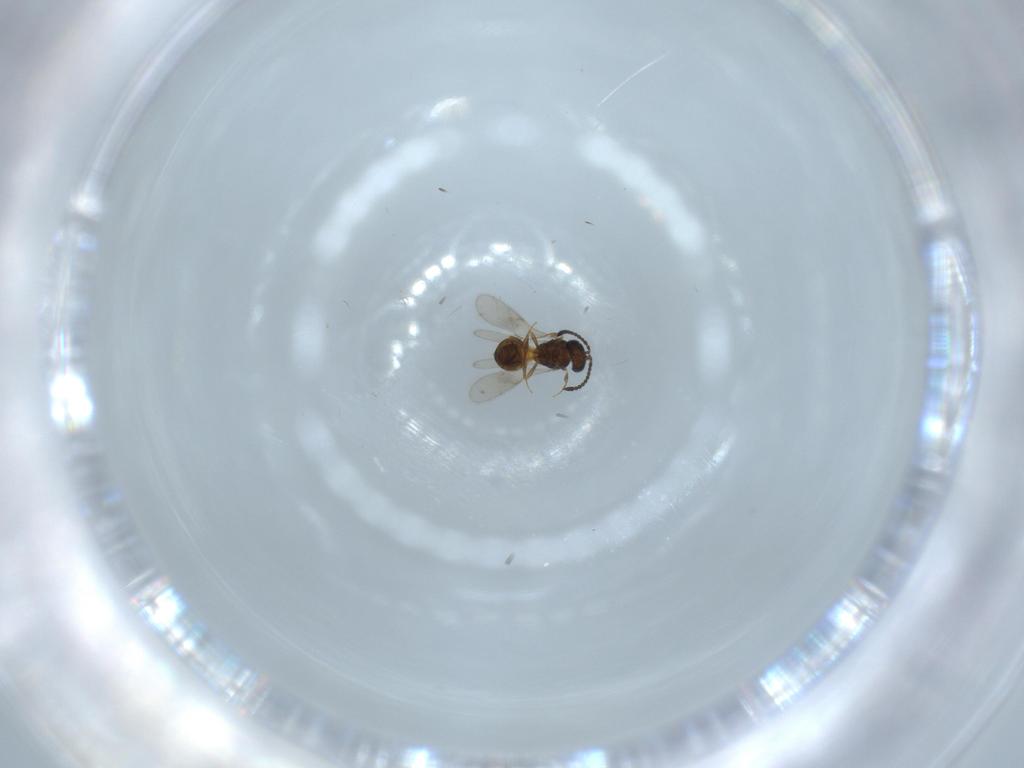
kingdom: Animalia
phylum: Arthropoda
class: Insecta
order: Hymenoptera
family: Scelionidae
